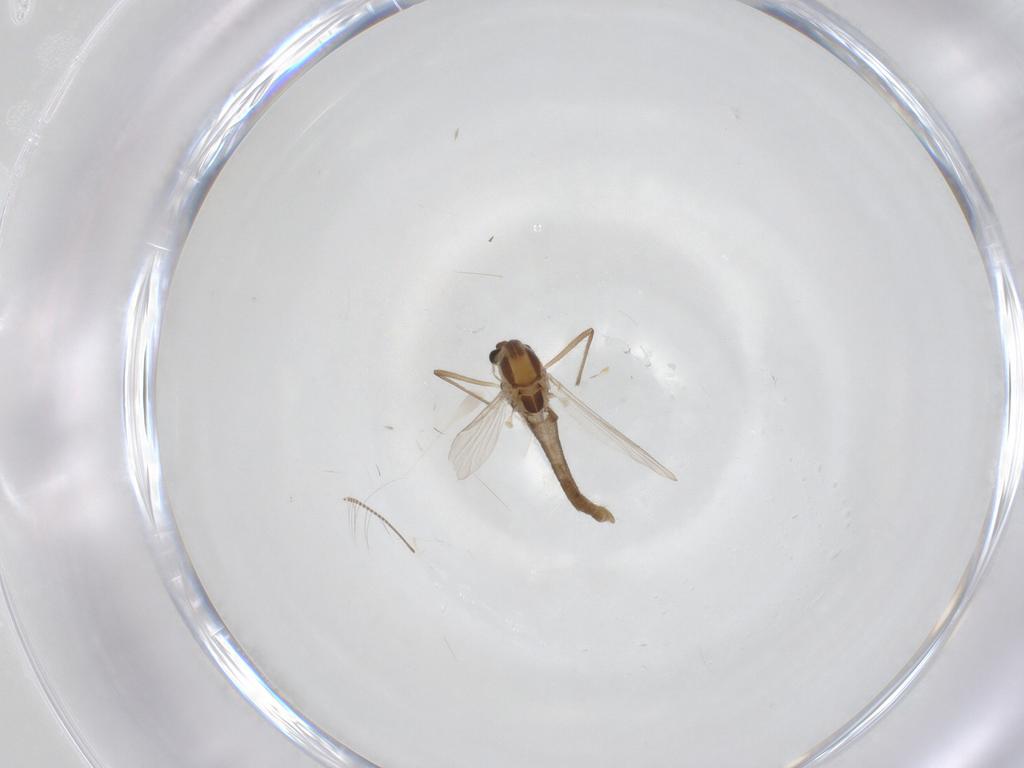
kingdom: Animalia
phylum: Arthropoda
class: Insecta
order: Diptera
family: Chironomidae
